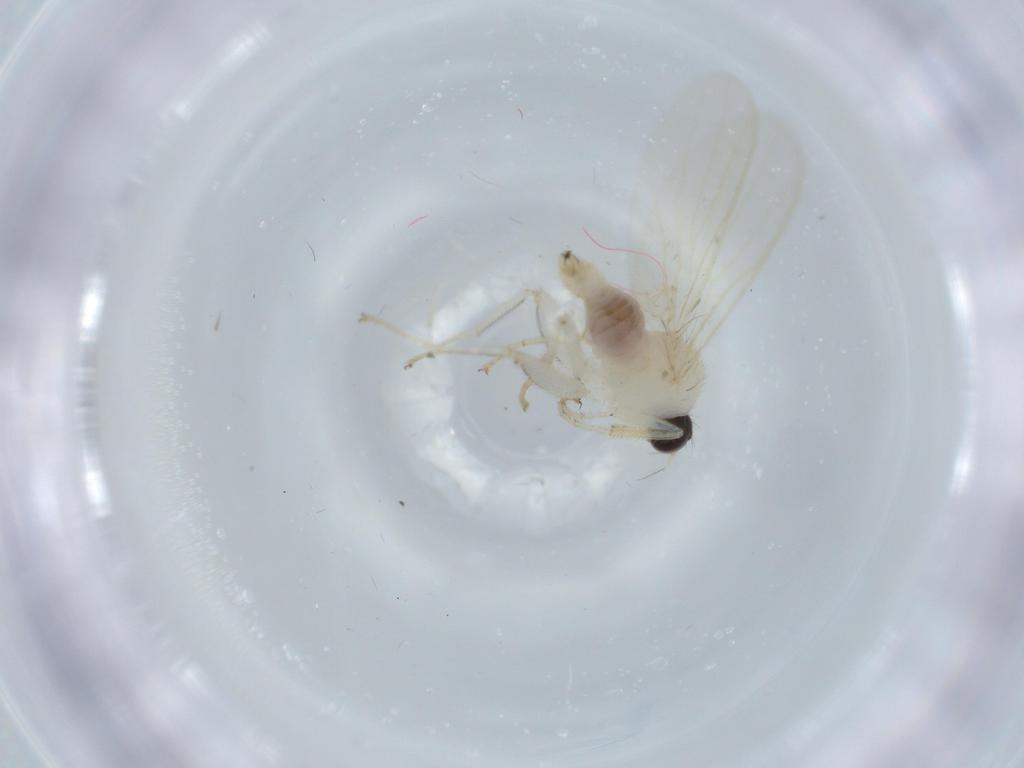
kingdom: Animalia
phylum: Arthropoda
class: Insecta
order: Diptera
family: Hybotidae
